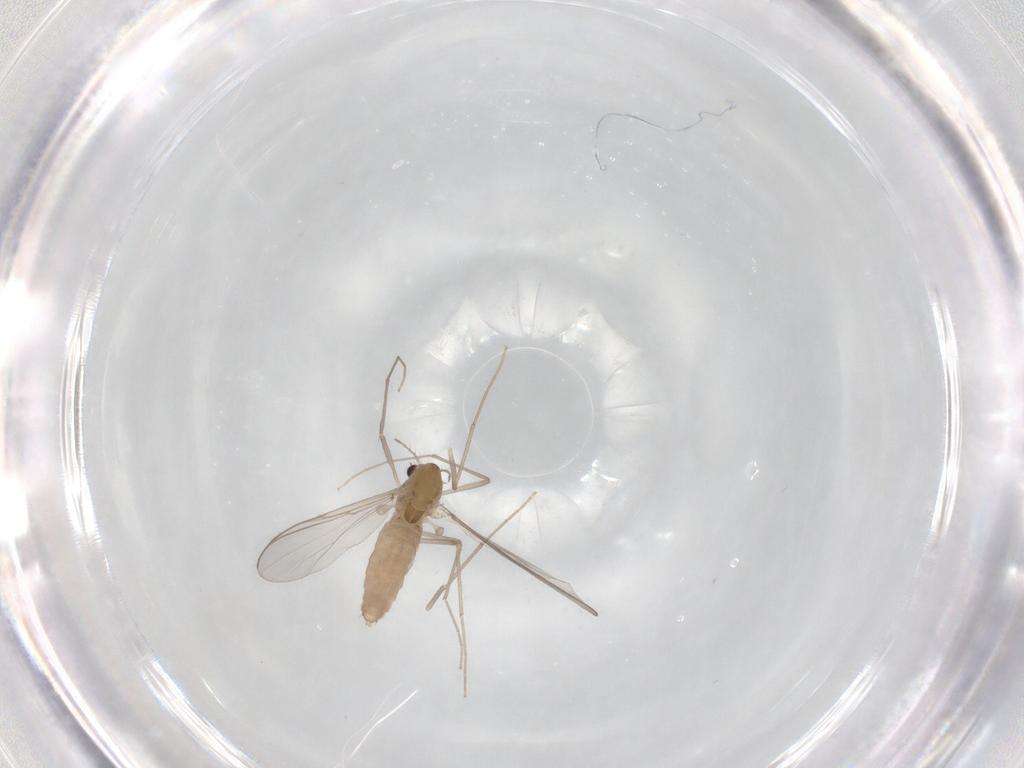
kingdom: Animalia
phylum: Arthropoda
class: Insecta
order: Diptera
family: Chironomidae
